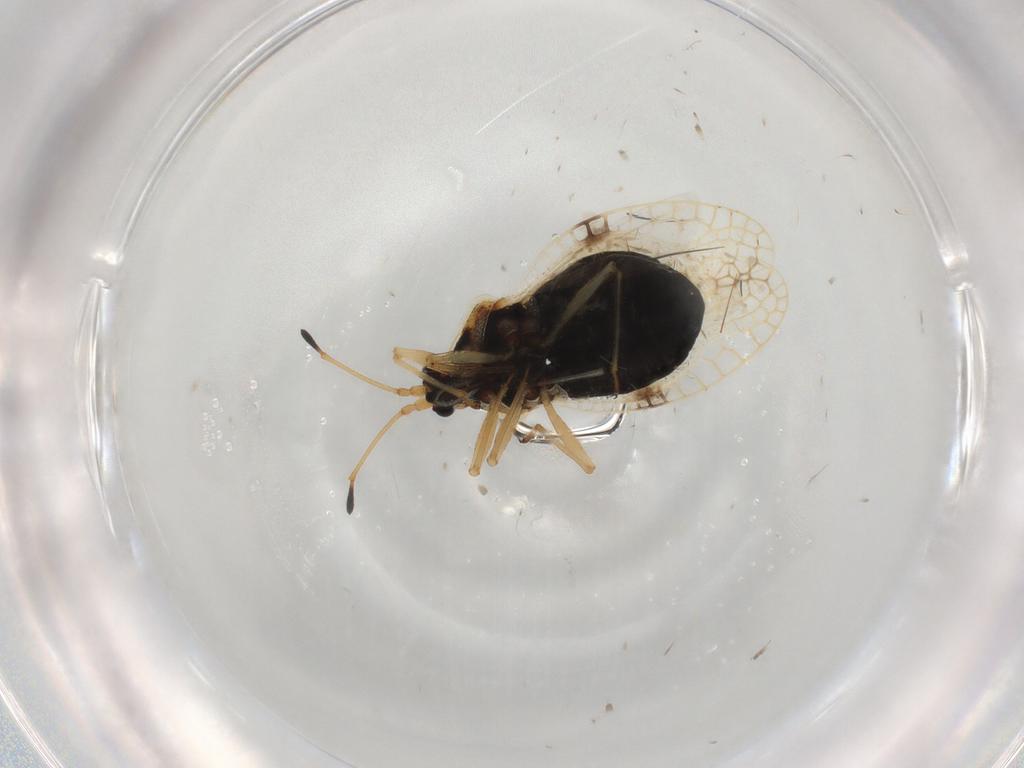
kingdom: Animalia
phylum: Arthropoda
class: Insecta
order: Hemiptera
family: Tingidae
